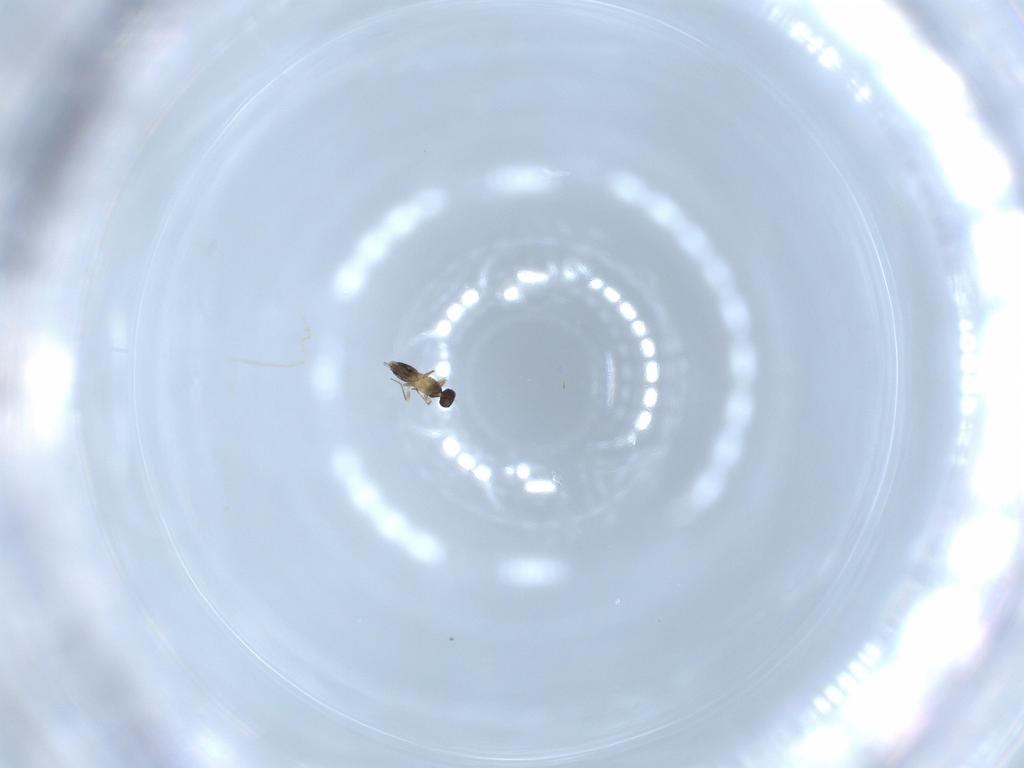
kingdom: Animalia
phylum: Arthropoda
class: Insecta
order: Hymenoptera
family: Mymaridae
